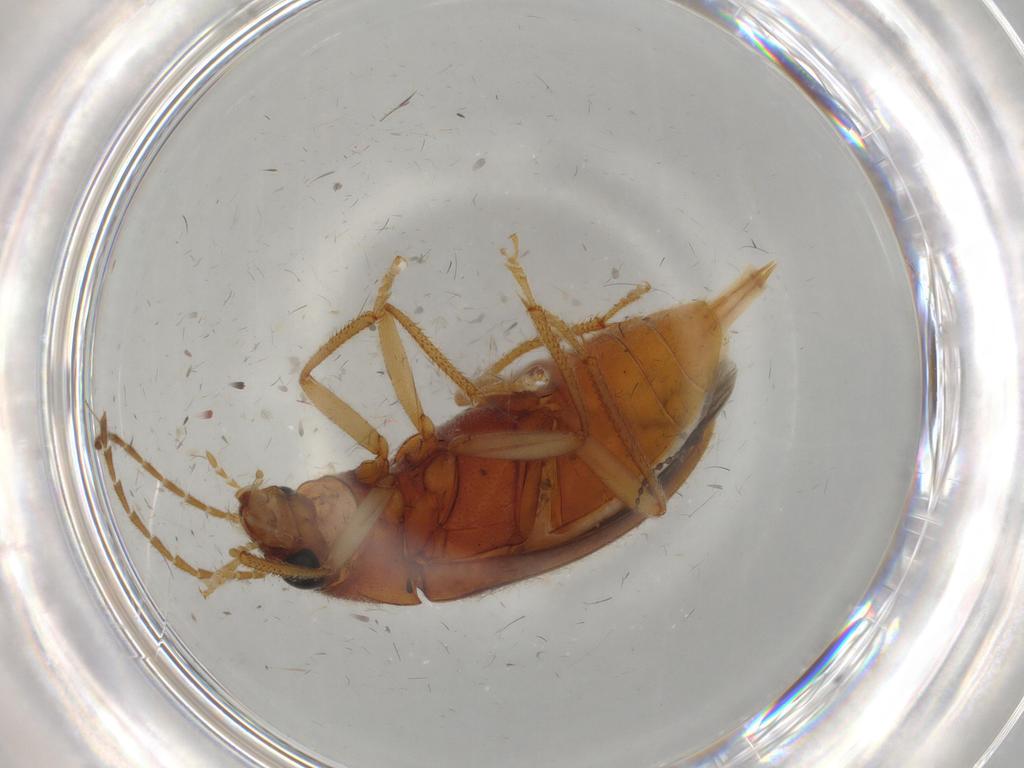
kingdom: Animalia
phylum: Arthropoda
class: Insecta
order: Coleoptera
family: Ptilodactylidae
